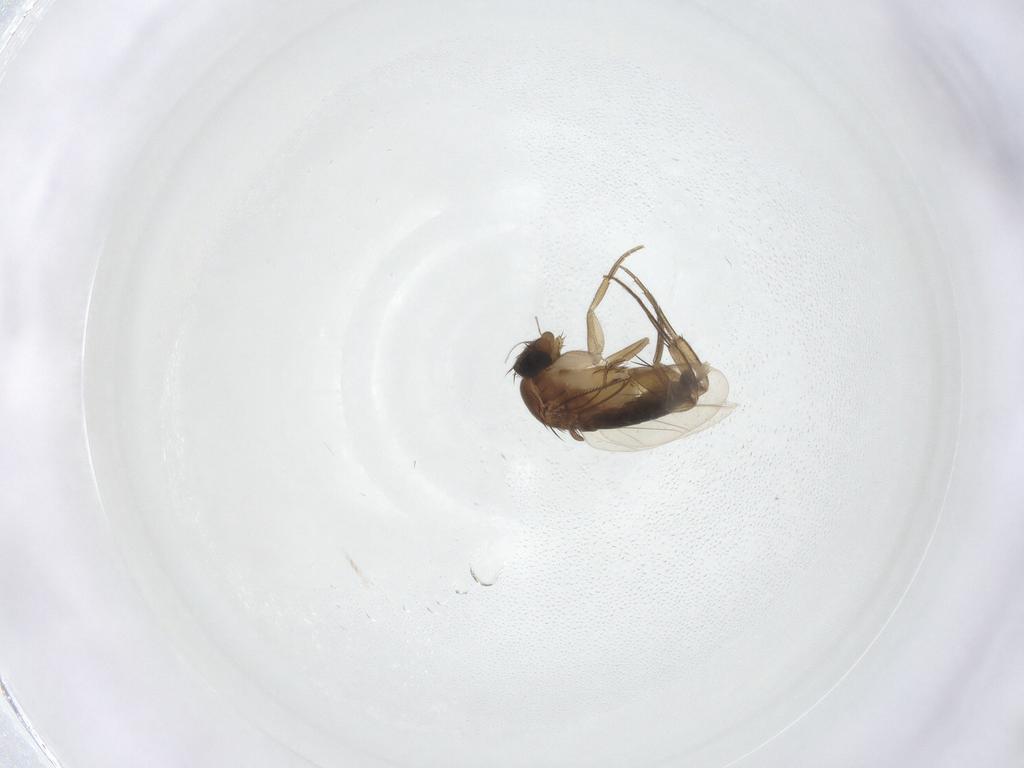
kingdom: Animalia
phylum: Arthropoda
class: Insecta
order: Diptera
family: Phoridae
